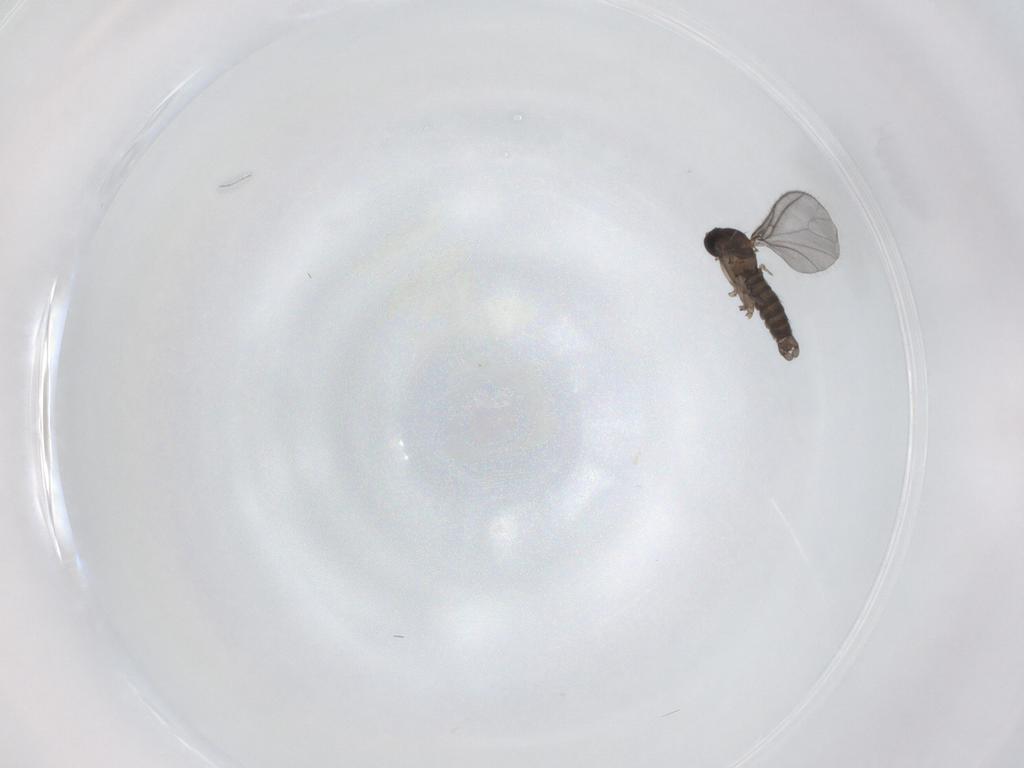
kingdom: Animalia
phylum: Arthropoda
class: Insecta
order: Diptera
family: Sciaridae
